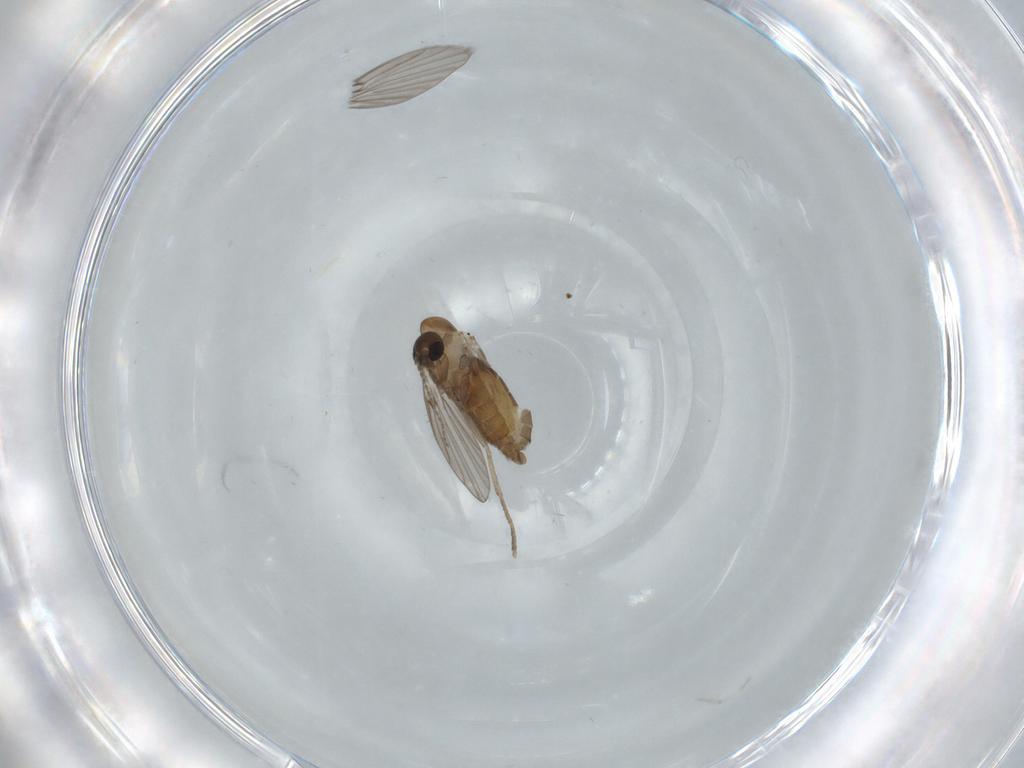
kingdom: Animalia
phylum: Arthropoda
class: Insecta
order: Diptera
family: Psychodidae
